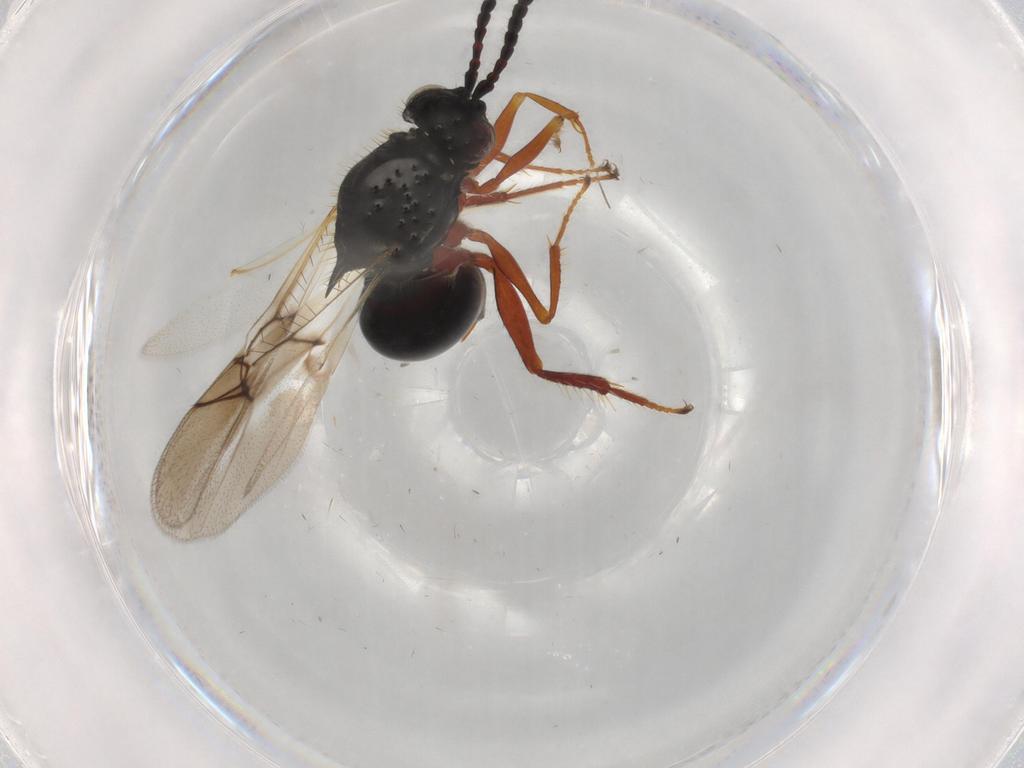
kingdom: Animalia
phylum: Arthropoda
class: Insecta
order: Hymenoptera
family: Figitidae
